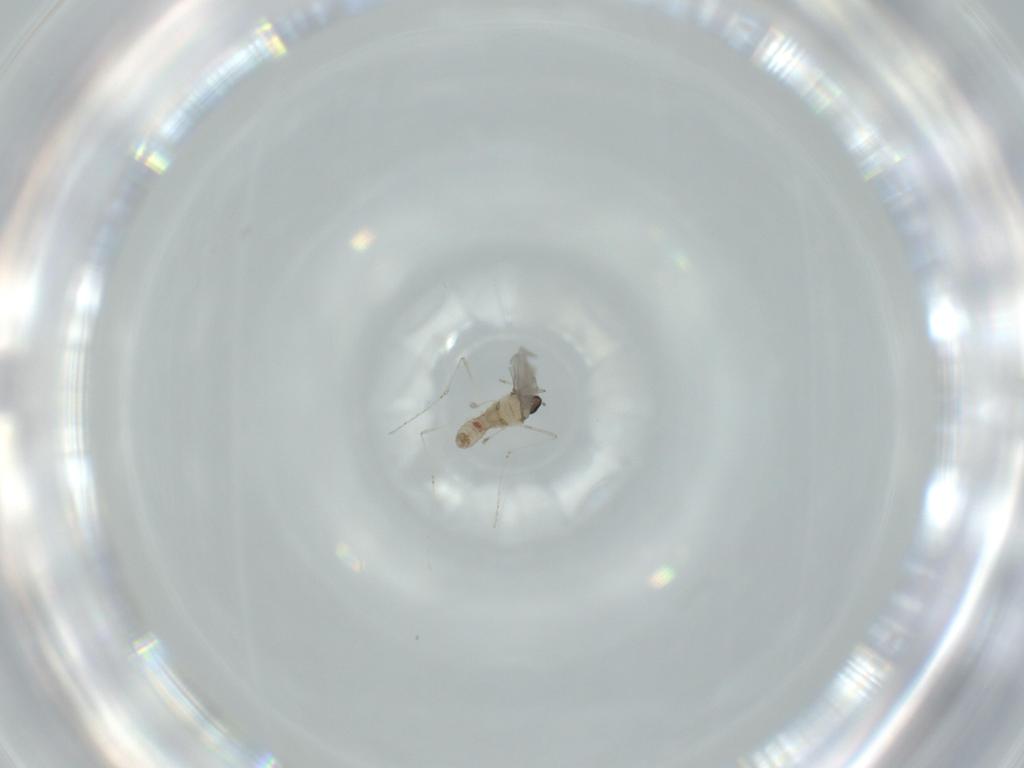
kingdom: Animalia
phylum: Arthropoda
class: Insecta
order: Diptera
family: Cecidomyiidae
